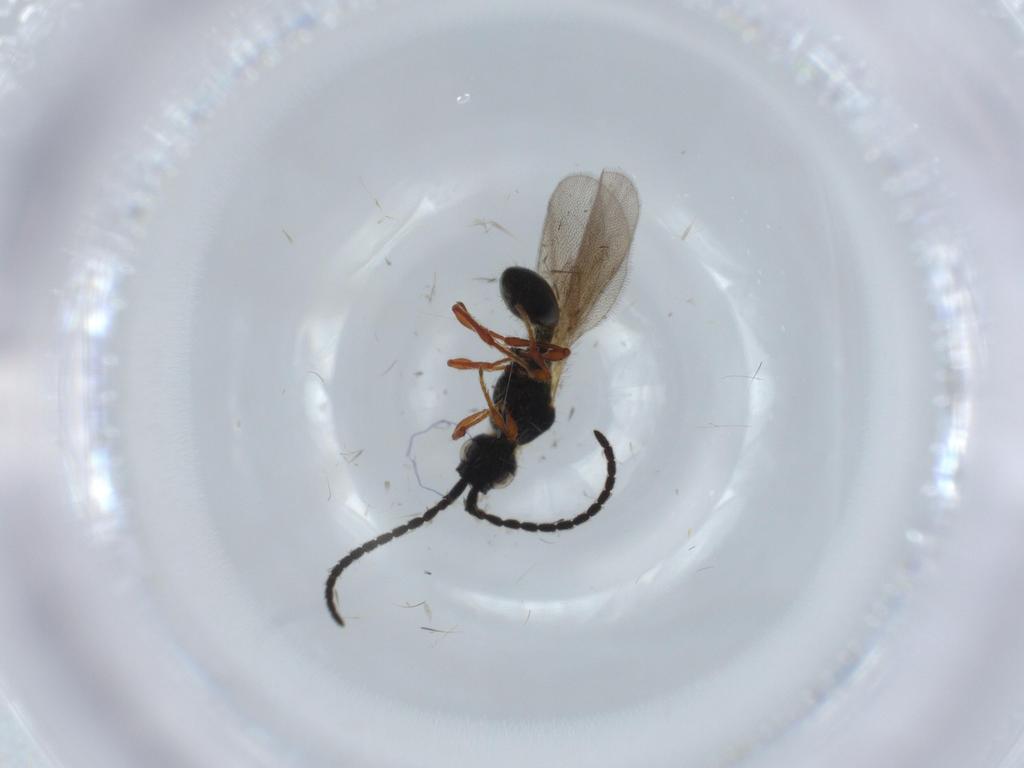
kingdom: Animalia
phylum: Arthropoda
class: Insecta
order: Hymenoptera
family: Diapriidae
